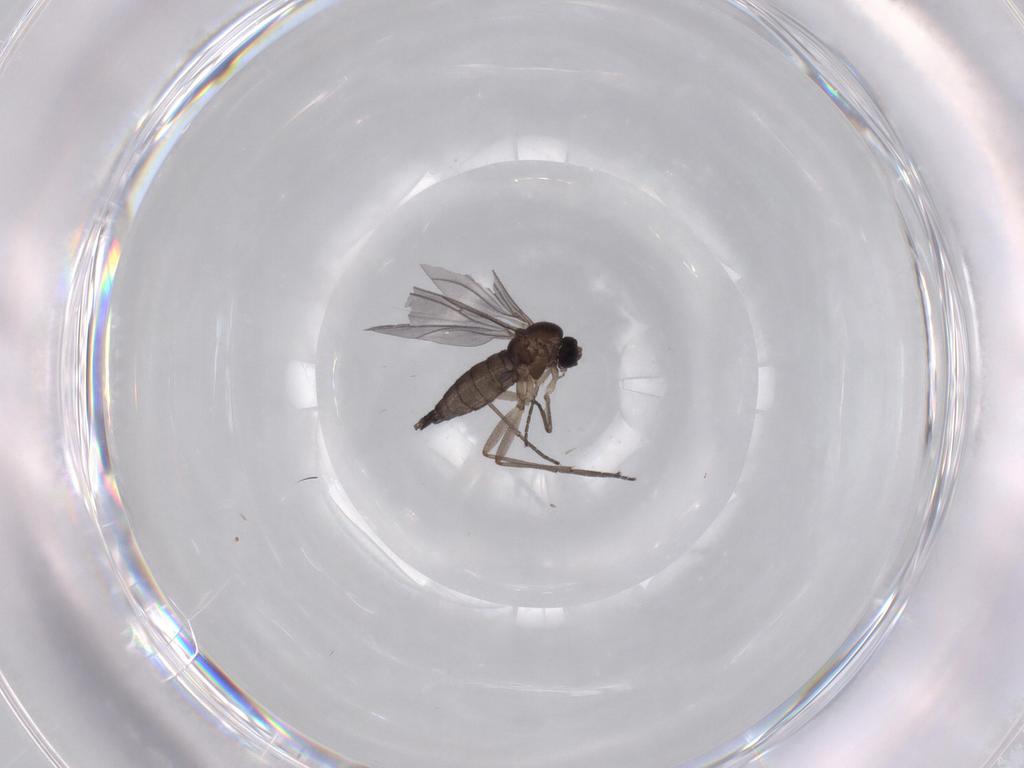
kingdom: Animalia
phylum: Arthropoda
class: Insecta
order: Diptera
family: Sciaridae
